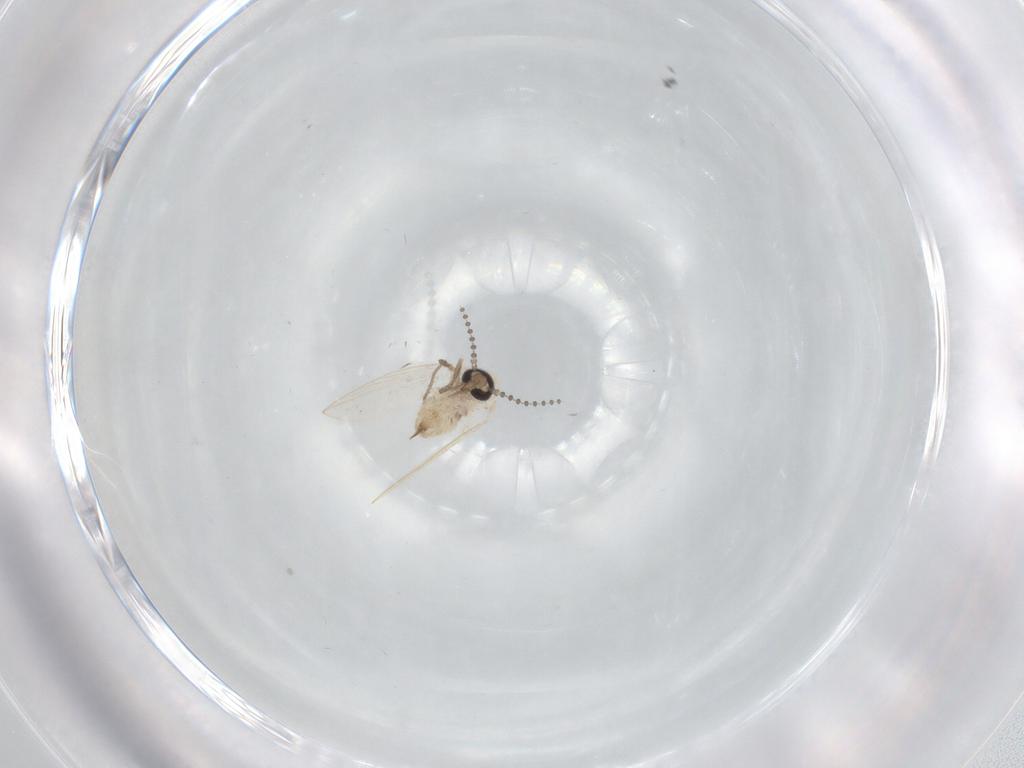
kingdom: Animalia
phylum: Arthropoda
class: Insecta
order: Diptera
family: Psychodidae
